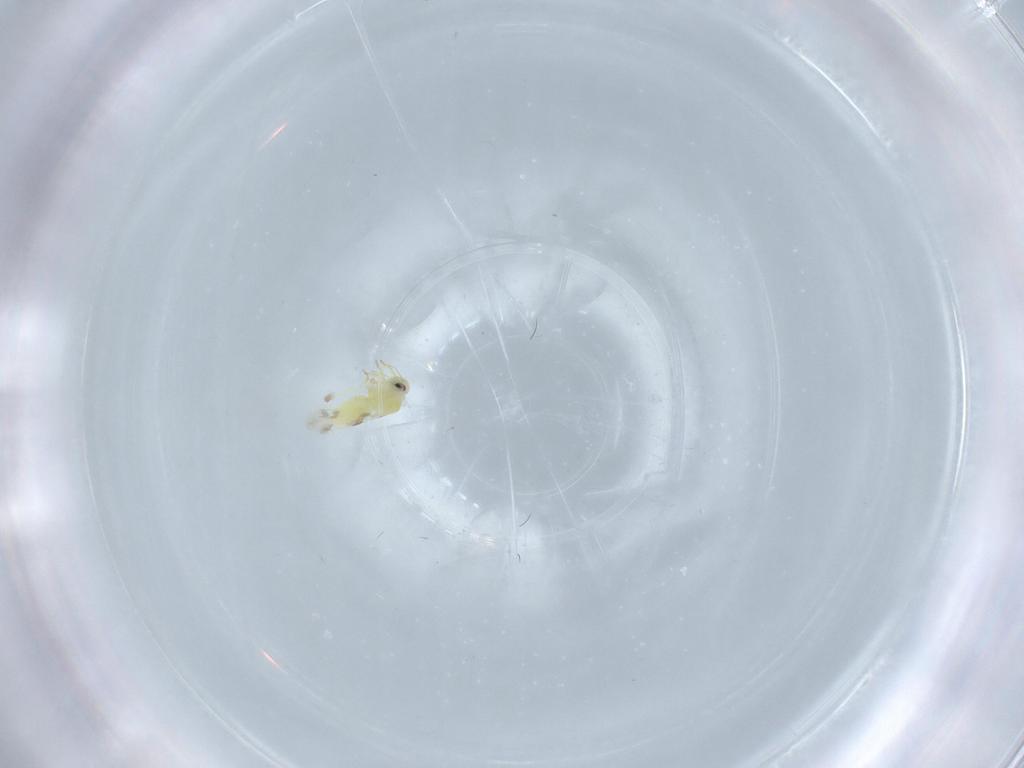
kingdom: Animalia
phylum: Arthropoda
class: Insecta
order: Hemiptera
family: Aleyrodidae
